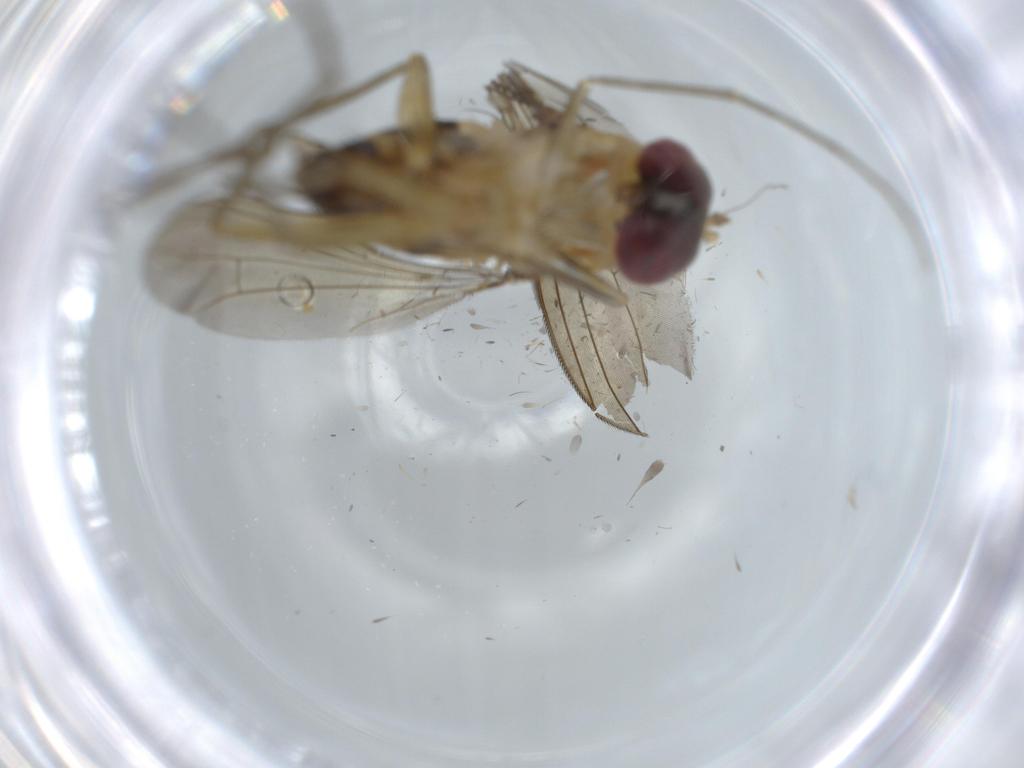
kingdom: Animalia
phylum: Arthropoda
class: Insecta
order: Diptera
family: Dolichopodidae
